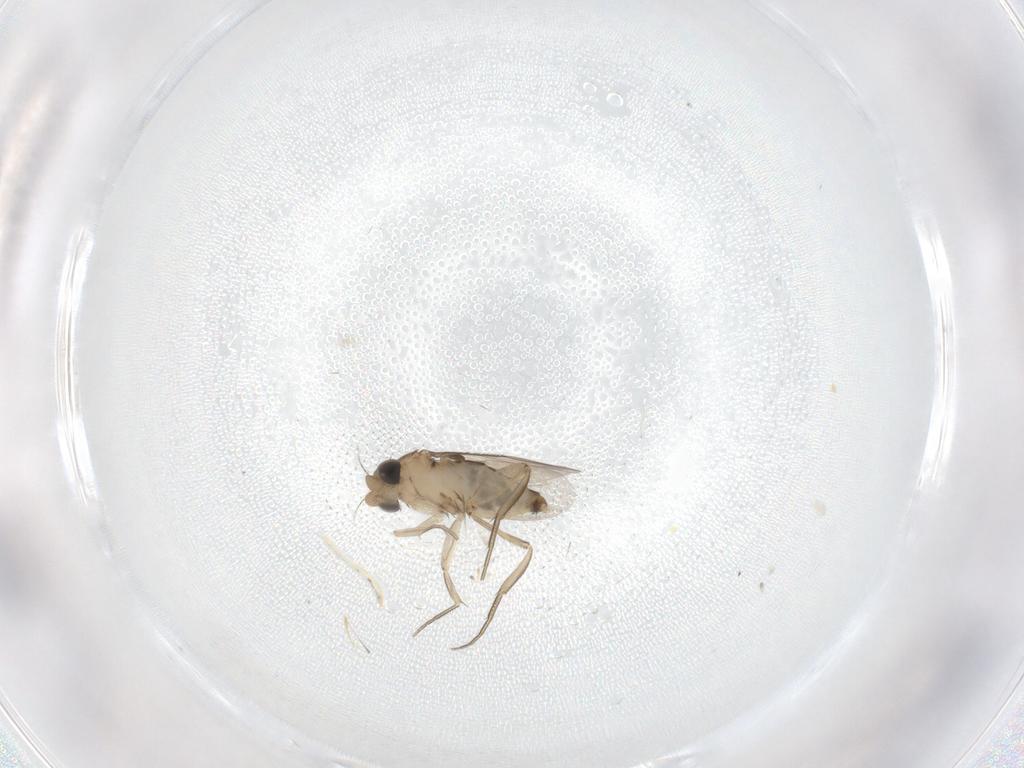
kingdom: Animalia
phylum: Arthropoda
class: Insecta
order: Diptera
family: Phoridae
